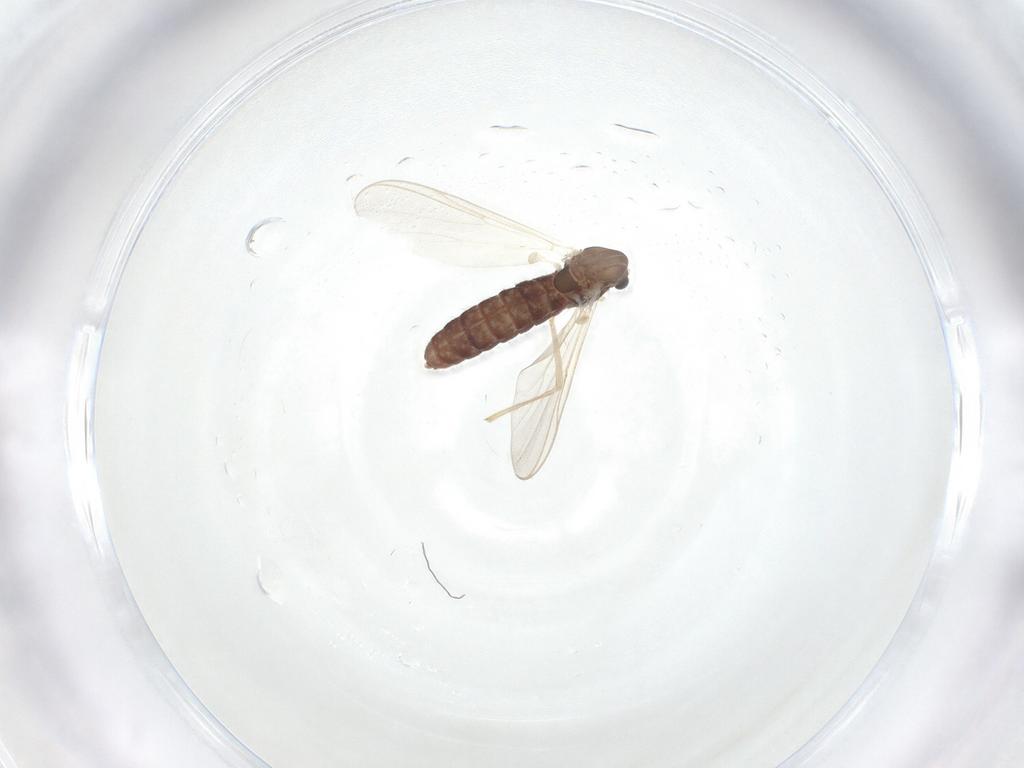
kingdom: Animalia
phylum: Arthropoda
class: Insecta
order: Diptera
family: Chironomidae
